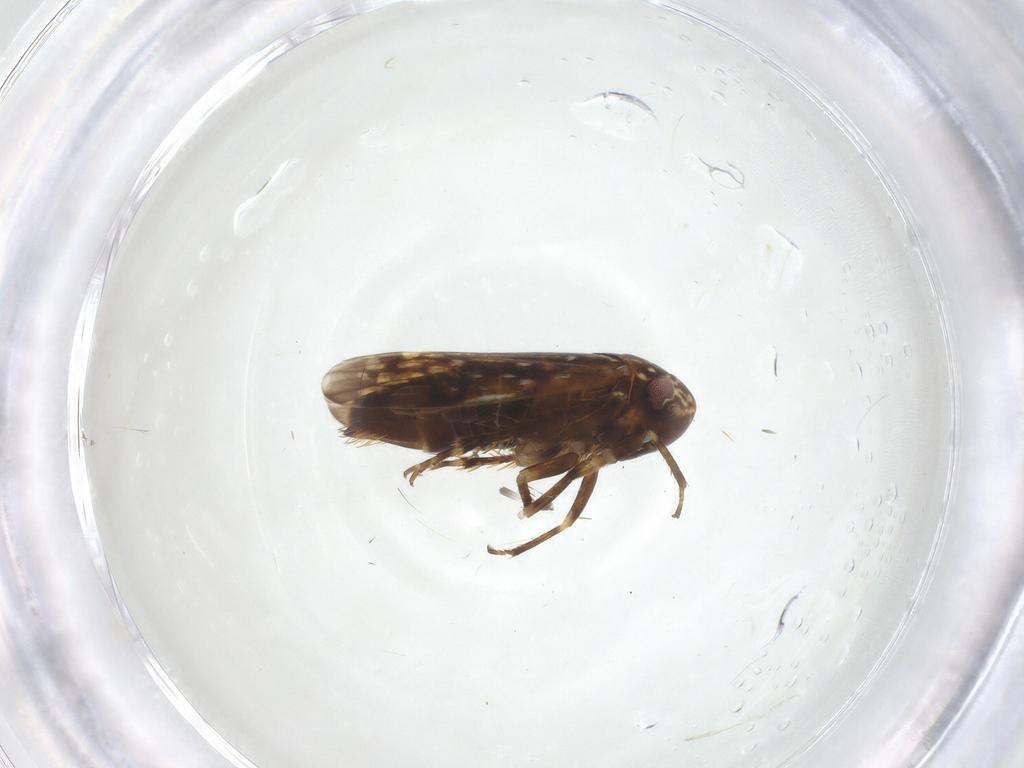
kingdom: Animalia
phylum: Arthropoda
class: Insecta
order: Hemiptera
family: Cicadellidae
